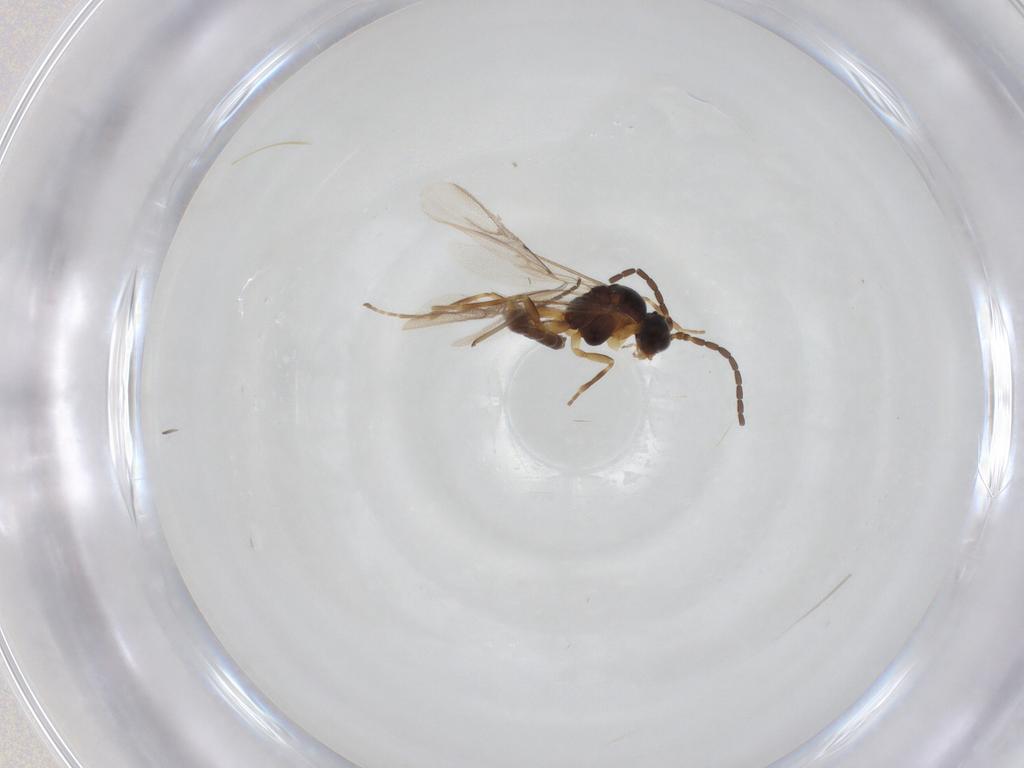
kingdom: Animalia
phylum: Arthropoda
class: Insecta
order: Hymenoptera
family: Braconidae
